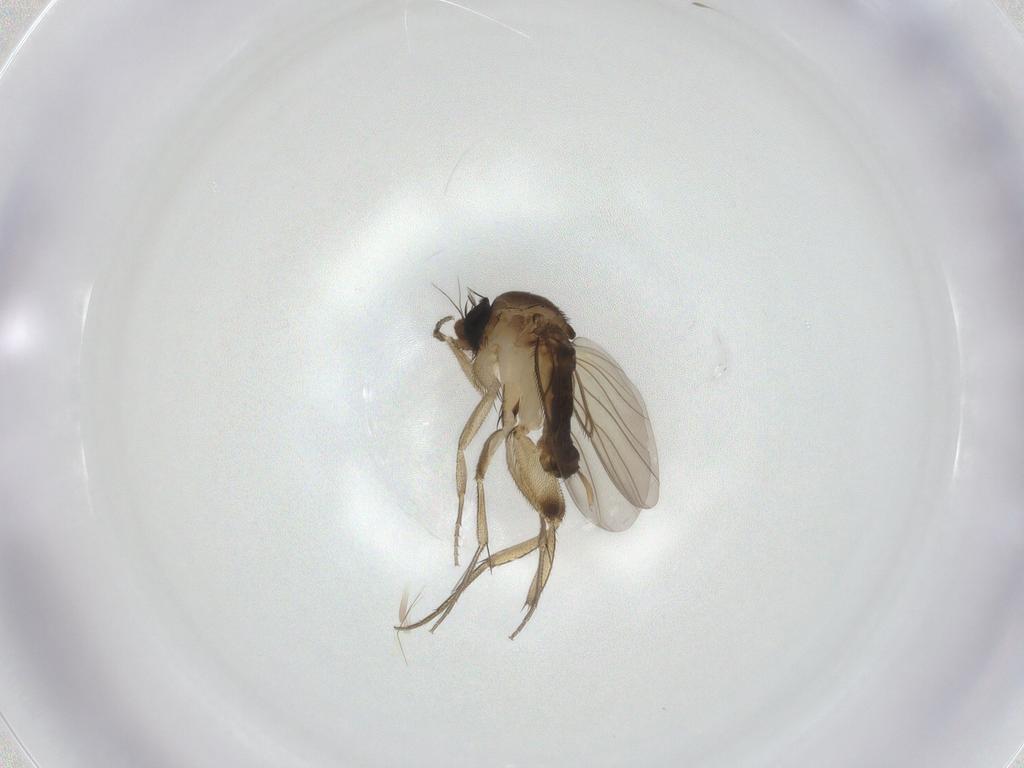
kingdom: Animalia
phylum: Arthropoda
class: Insecta
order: Diptera
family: Phoridae
